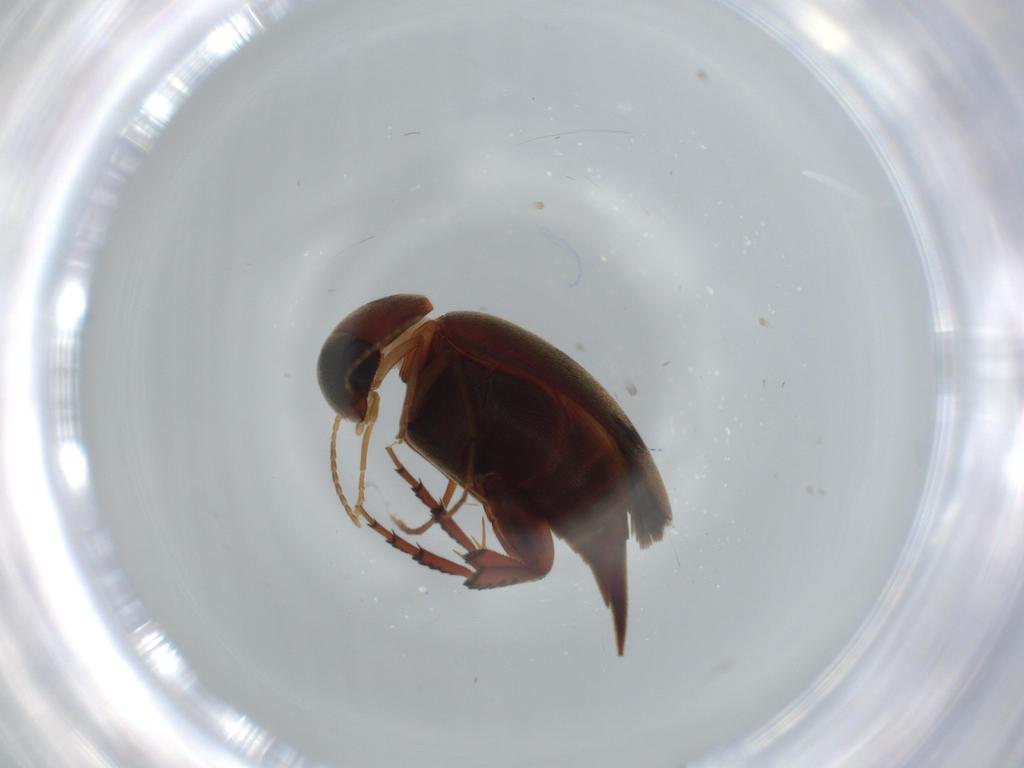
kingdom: Animalia
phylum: Arthropoda
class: Insecta
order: Coleoptera
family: Mordellidae
